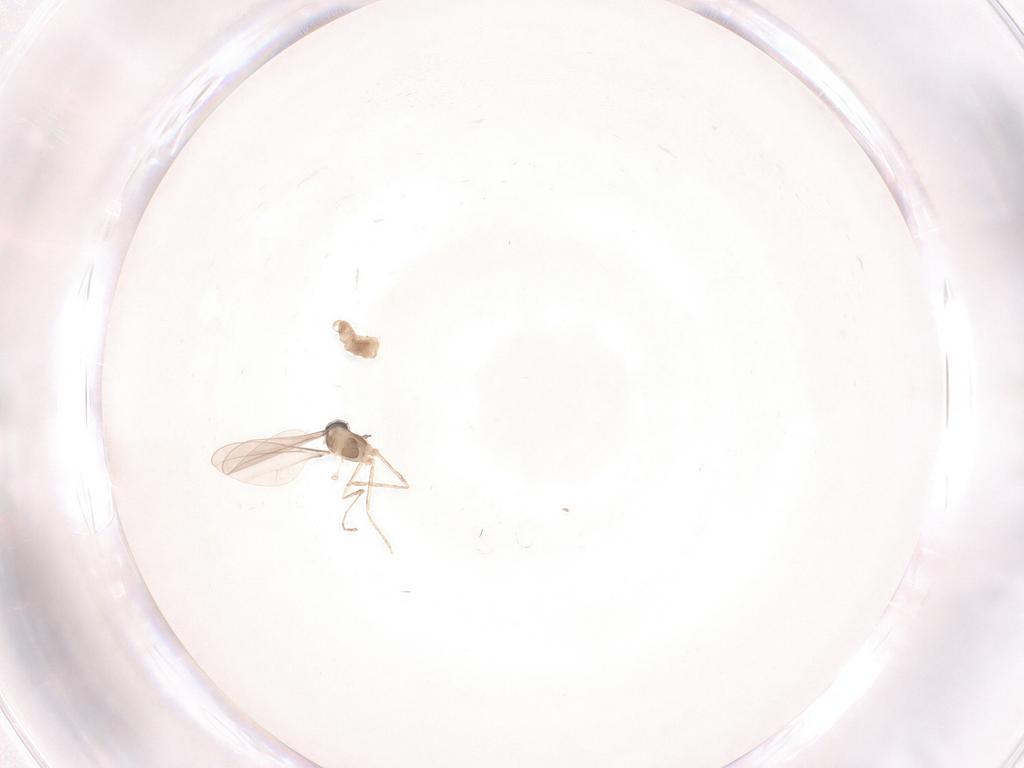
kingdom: Animalia
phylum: Arthropoda
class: Insecta
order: Diptera
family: Cecidomyiidae
